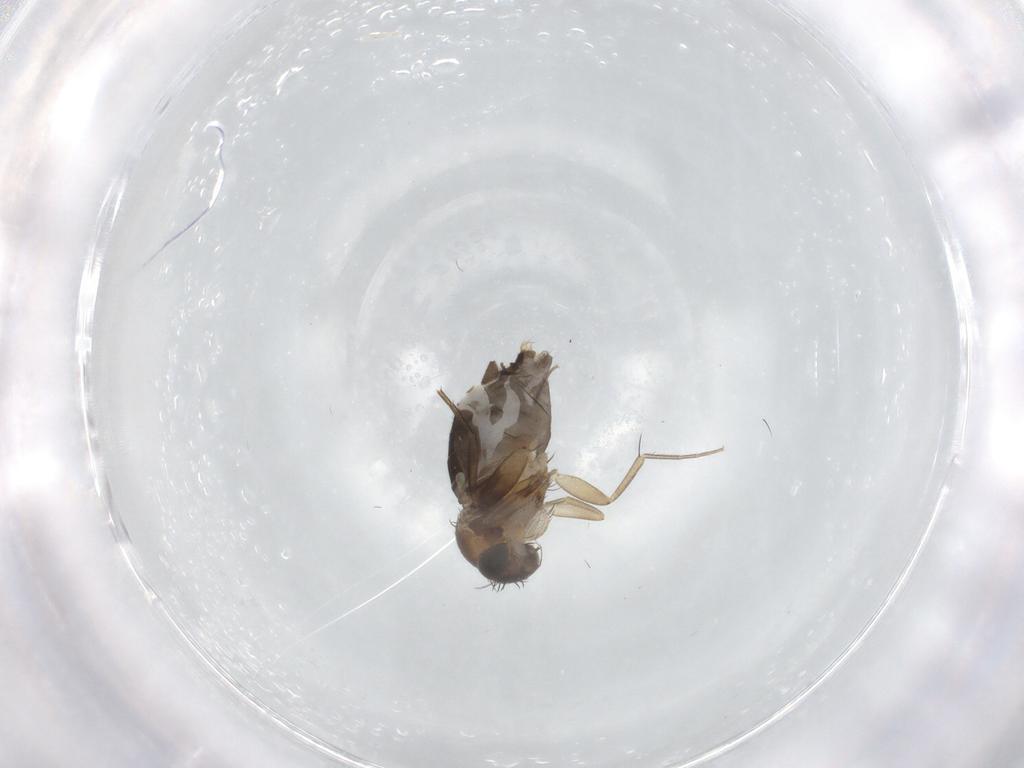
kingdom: Animalia
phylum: Arthropoda
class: Insecta
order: Diptera
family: Phoridae
